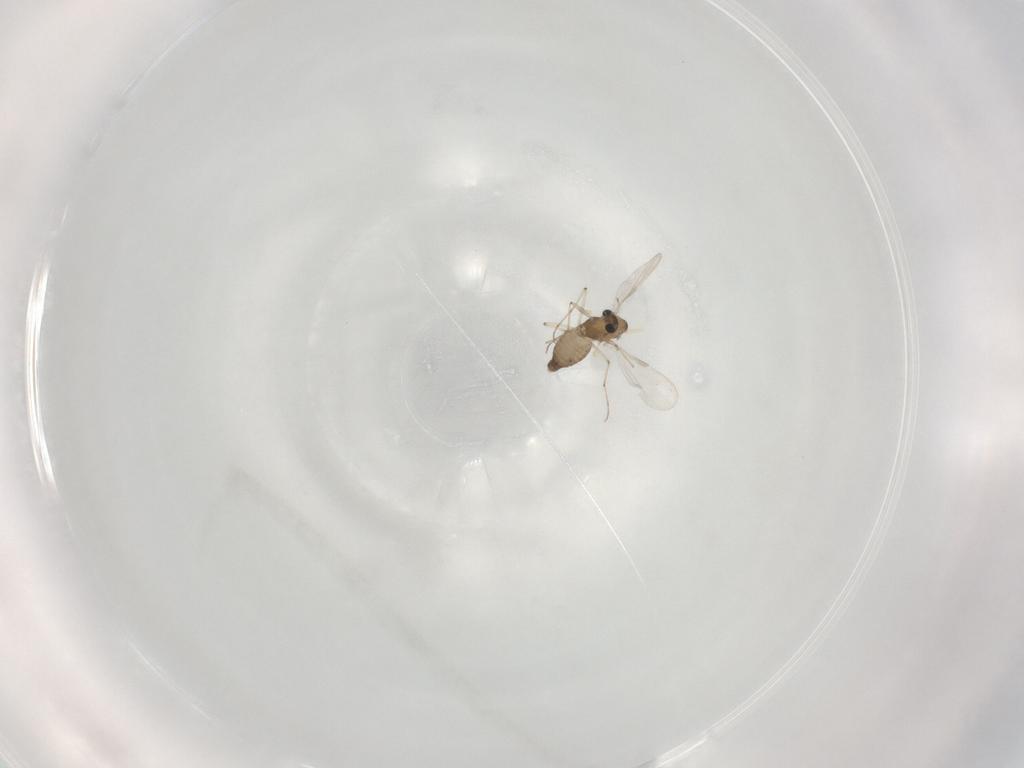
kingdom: Animalia
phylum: Arthropoda
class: Insecta
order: Diptera
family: Chironomidae
